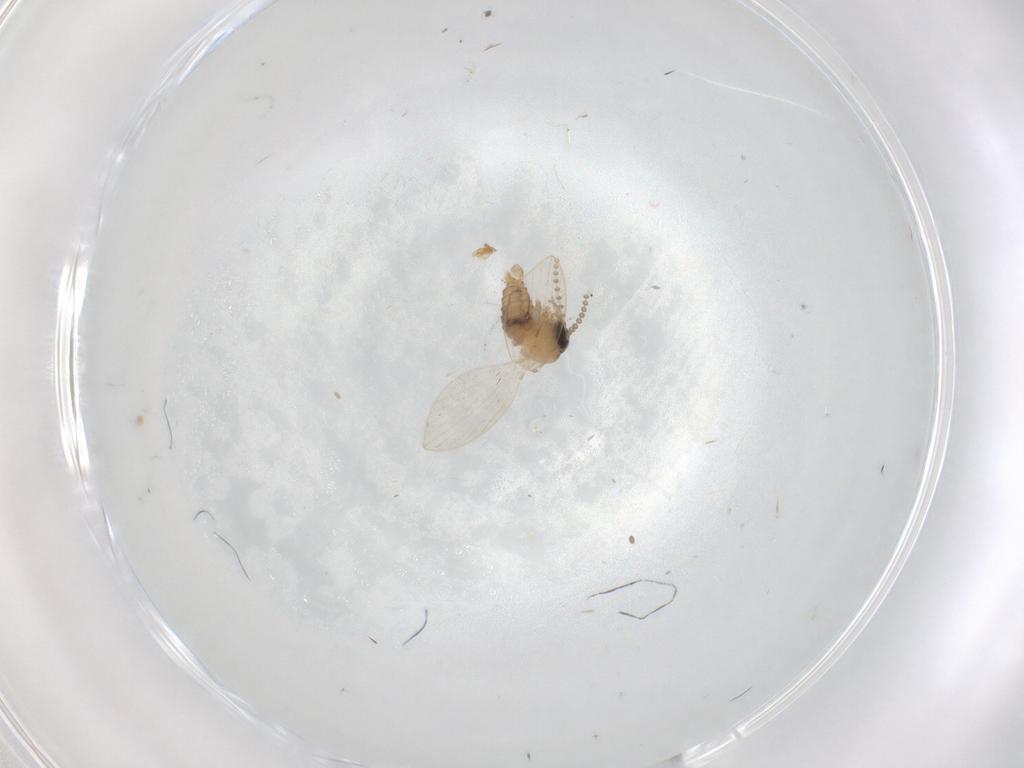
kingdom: Animalia
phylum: Arthropoda
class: Insecta
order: Diptera
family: Psychodidae
